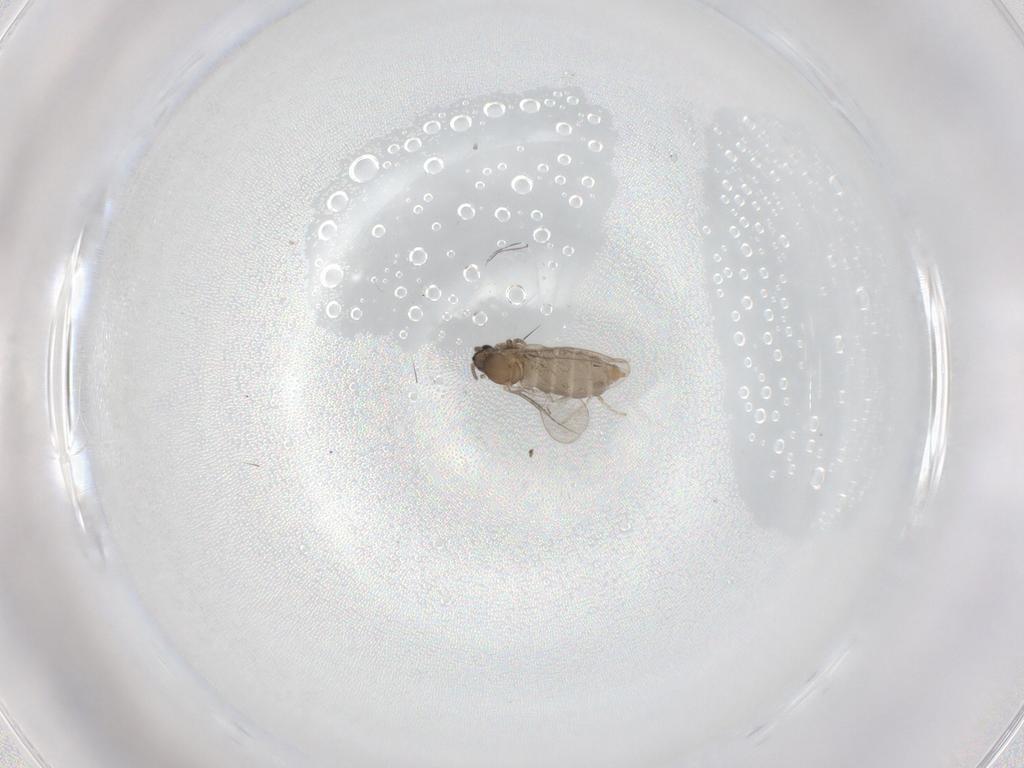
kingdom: Animalia
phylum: Arthropoda
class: Insecta
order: Diptera
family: Cecidomyiidae
